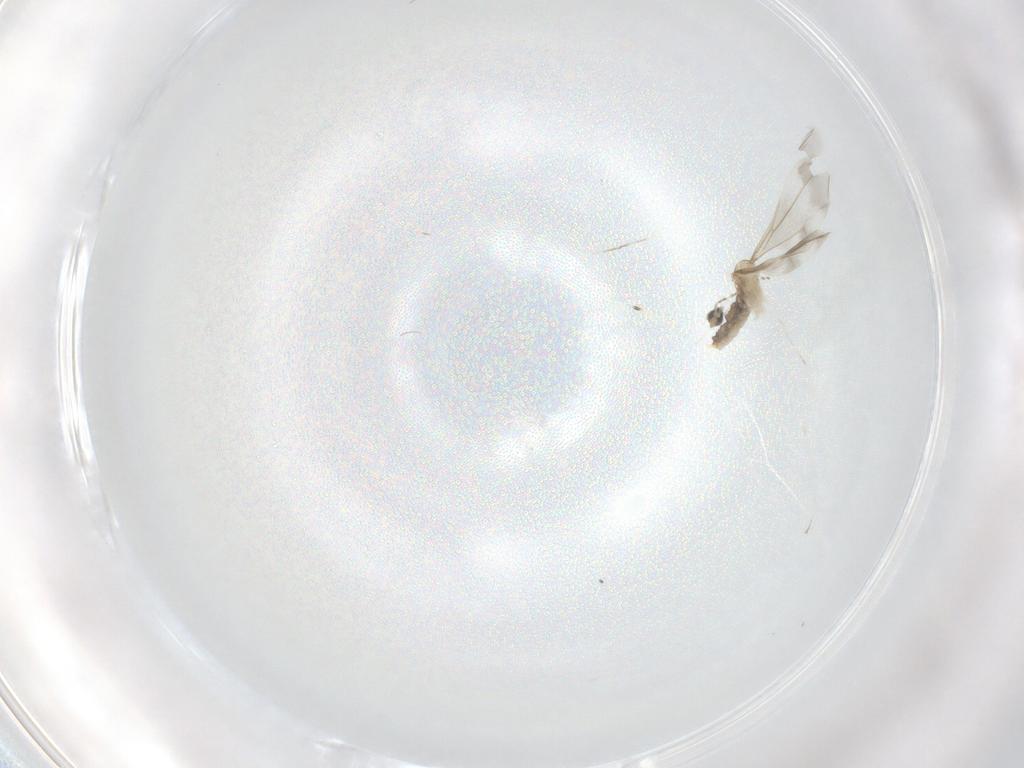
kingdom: Animalia
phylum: Arthropoda
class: Insecta
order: Diptera
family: Cecidomyiidae
